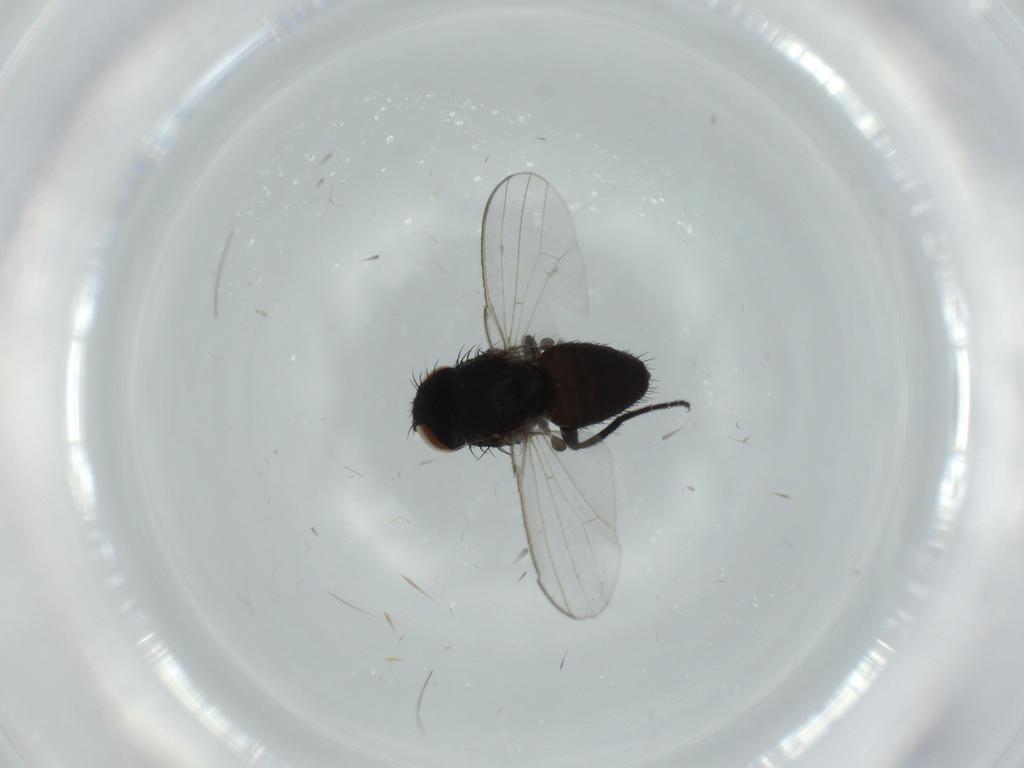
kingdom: Animalia
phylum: Arthropoda
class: Insecta
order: Diptera
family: Milichiidae
